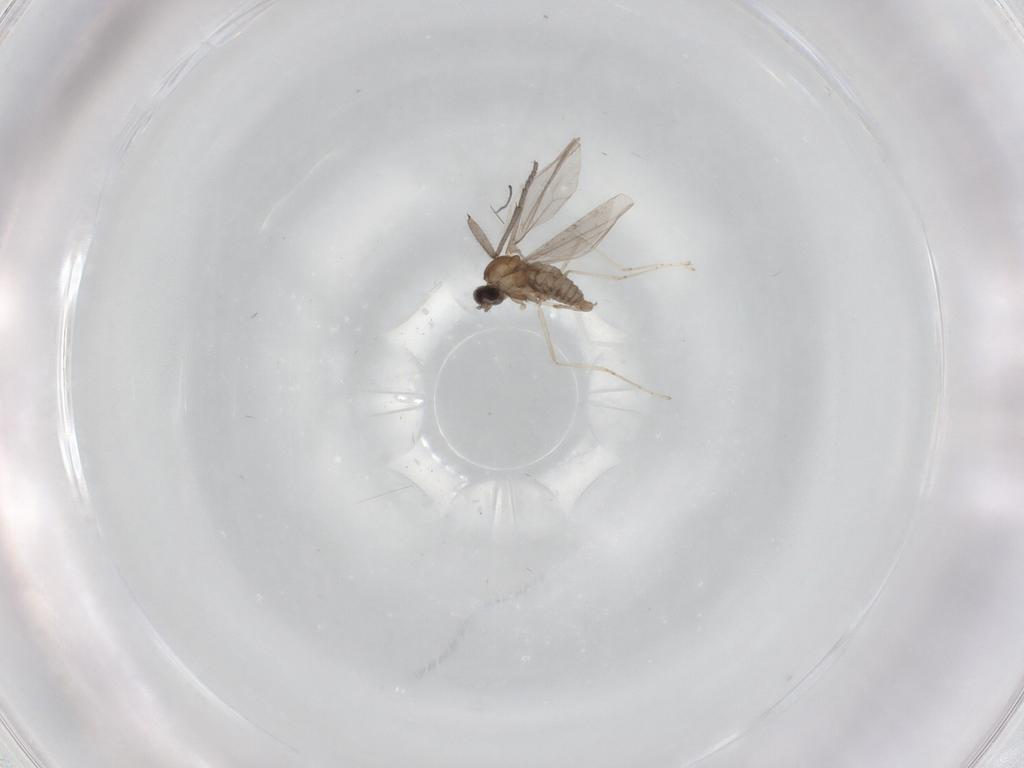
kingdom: Animalia
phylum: Arthropoda
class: Insecta
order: Diptera
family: Sciaridae
